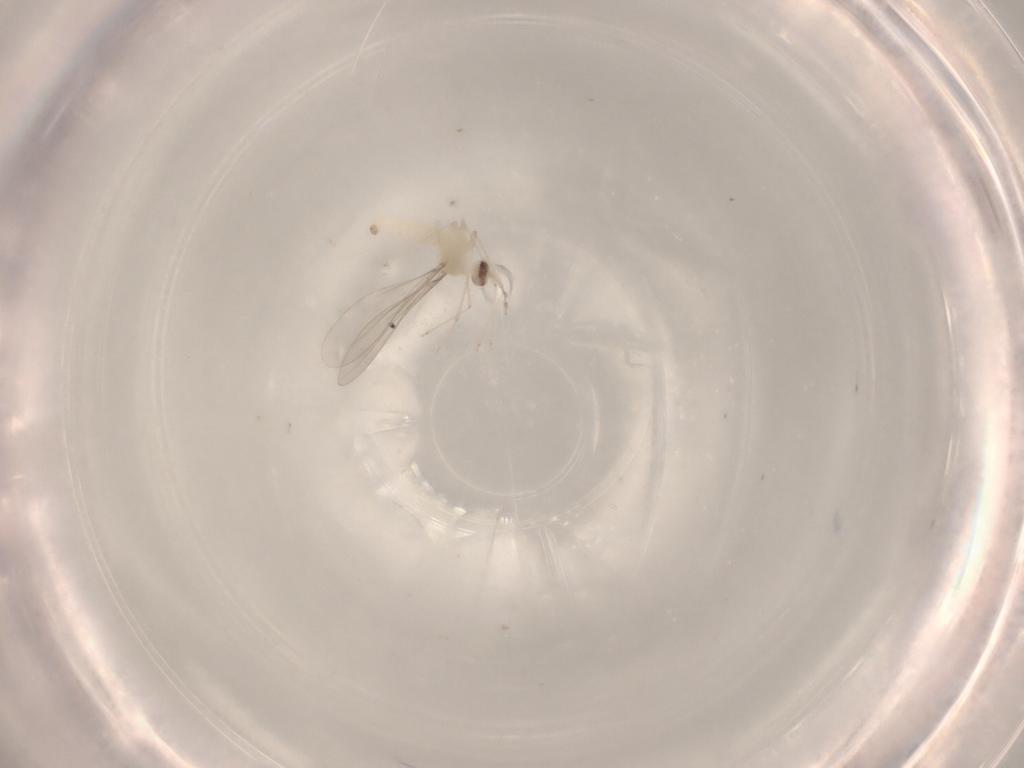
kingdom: Animalia
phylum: Arthropoda
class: Insecta
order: Diptera
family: Cecidomyiidae
